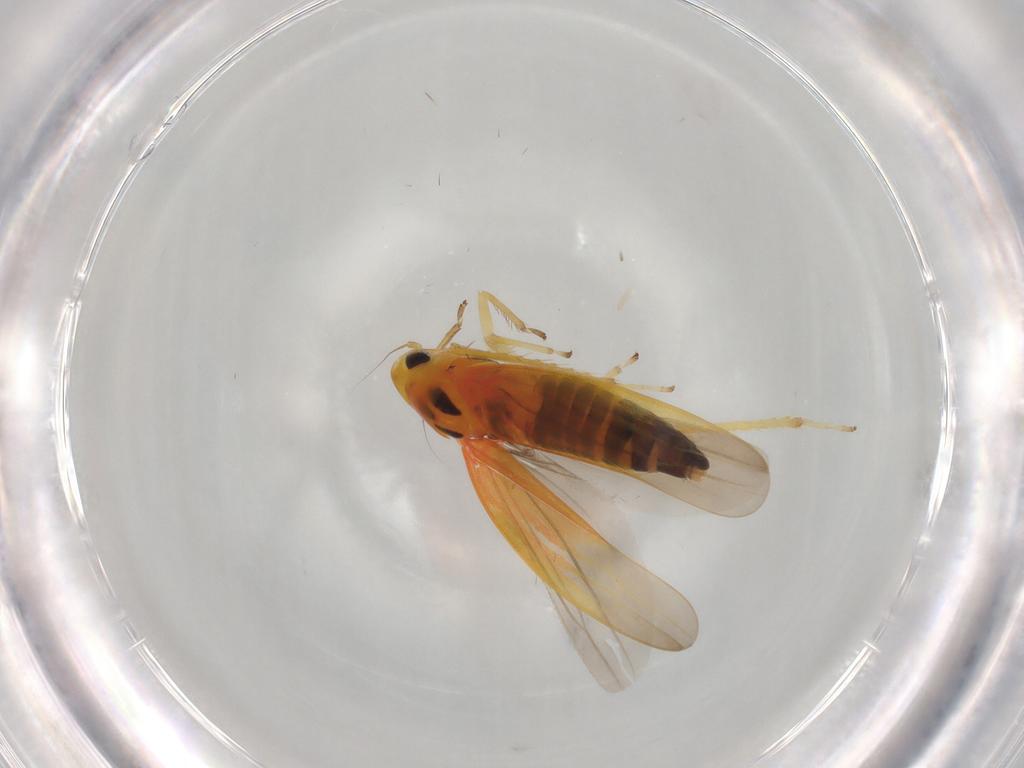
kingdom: Animalia
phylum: Arthropoda
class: Insecta
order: Hemiptera
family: Cicadellidae
